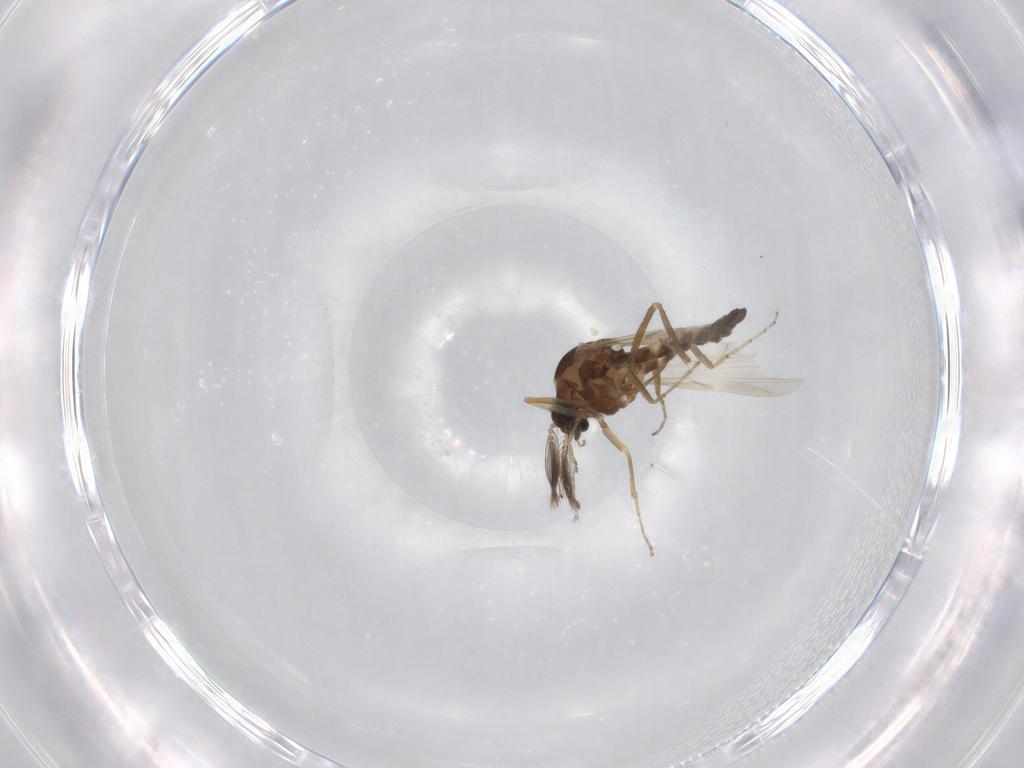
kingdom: Animalia
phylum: Arthropoda
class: Insecta
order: Diptera
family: Ceratopogonidae
